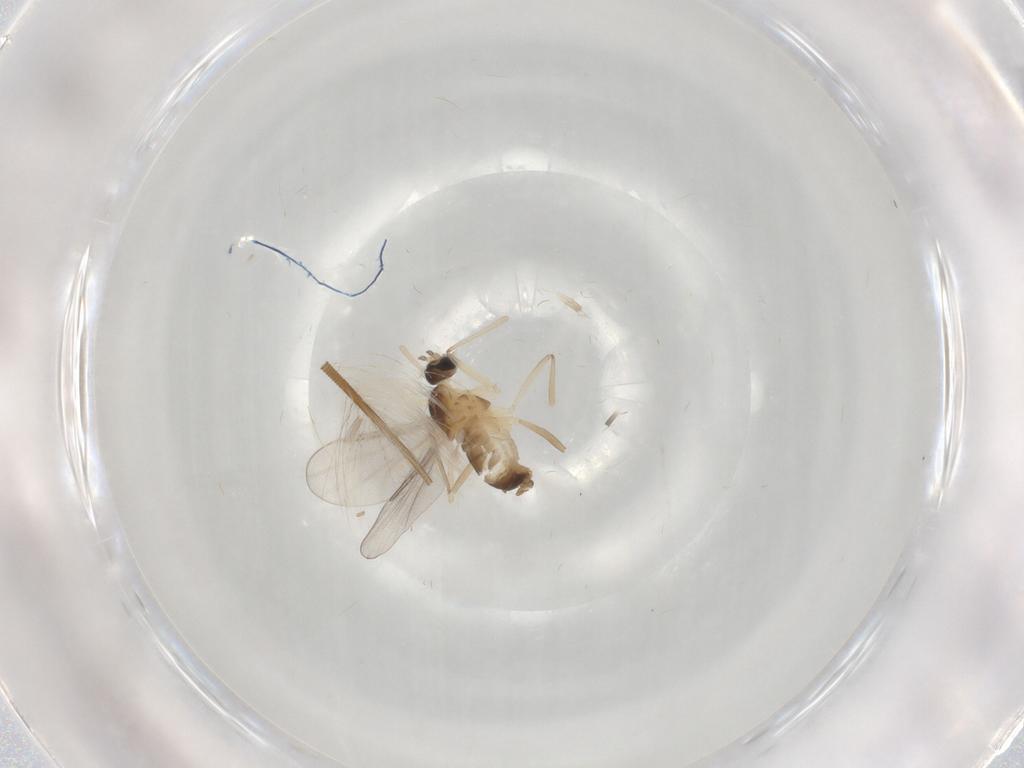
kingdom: Animalia
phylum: Arthropoda
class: Insecta
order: Diptera
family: Cecidomyiidae
